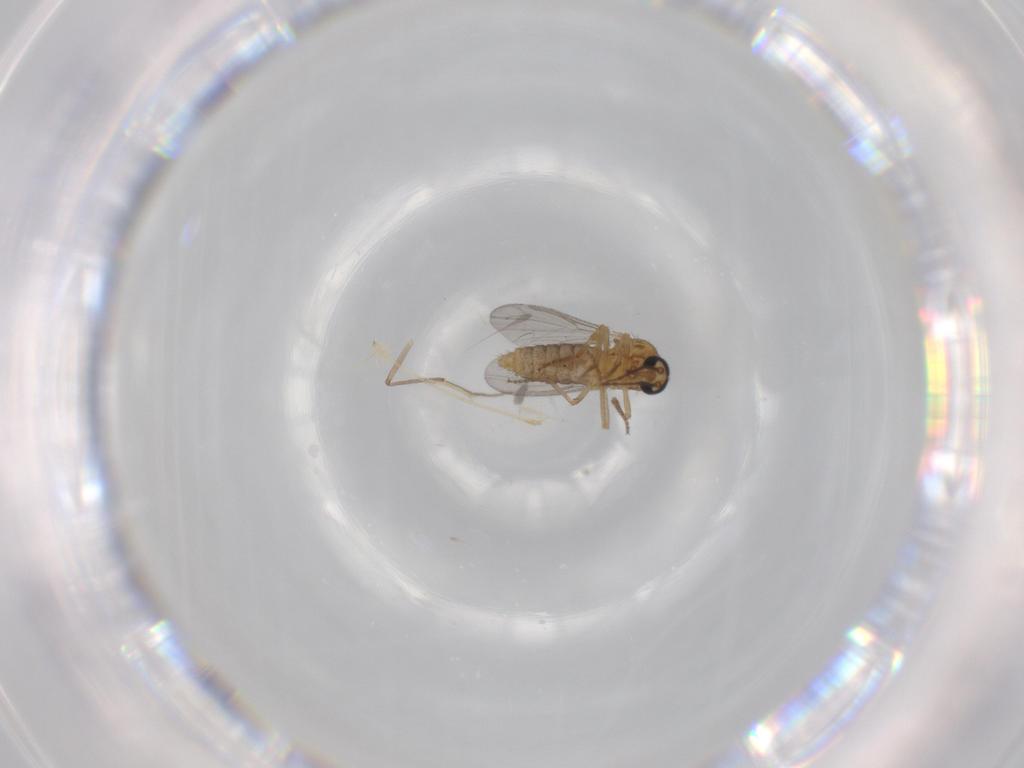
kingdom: Animalia
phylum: Arthropoda
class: Insecta
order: Diptera
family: Ceratopogonidae
